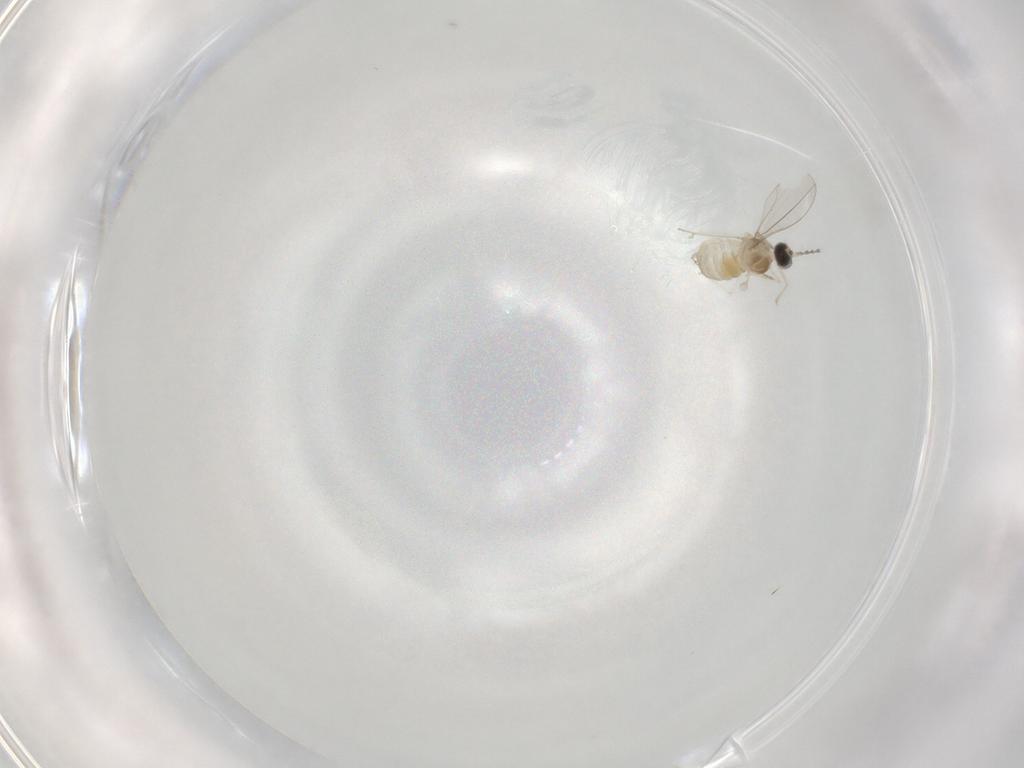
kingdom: Animalia
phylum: Arthropoda
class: Insecta
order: Diptera
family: Cecidomyiidae
